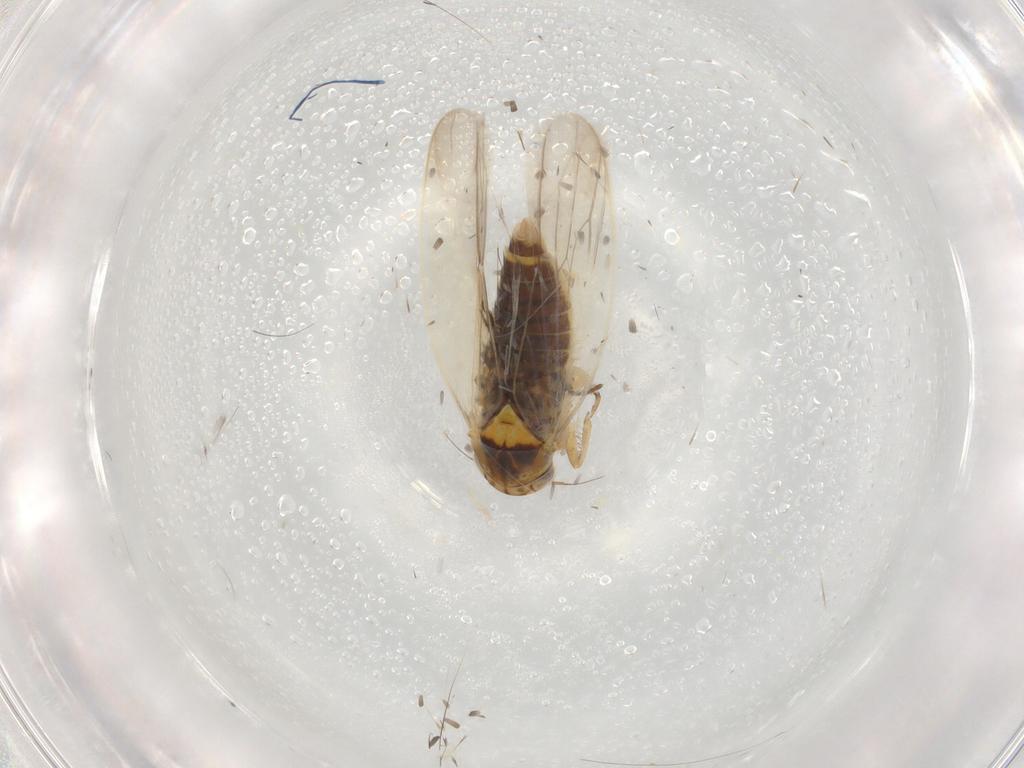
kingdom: Animalia
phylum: Arthropoda
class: Insecta
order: Hemiptera
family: Cicadellidae
